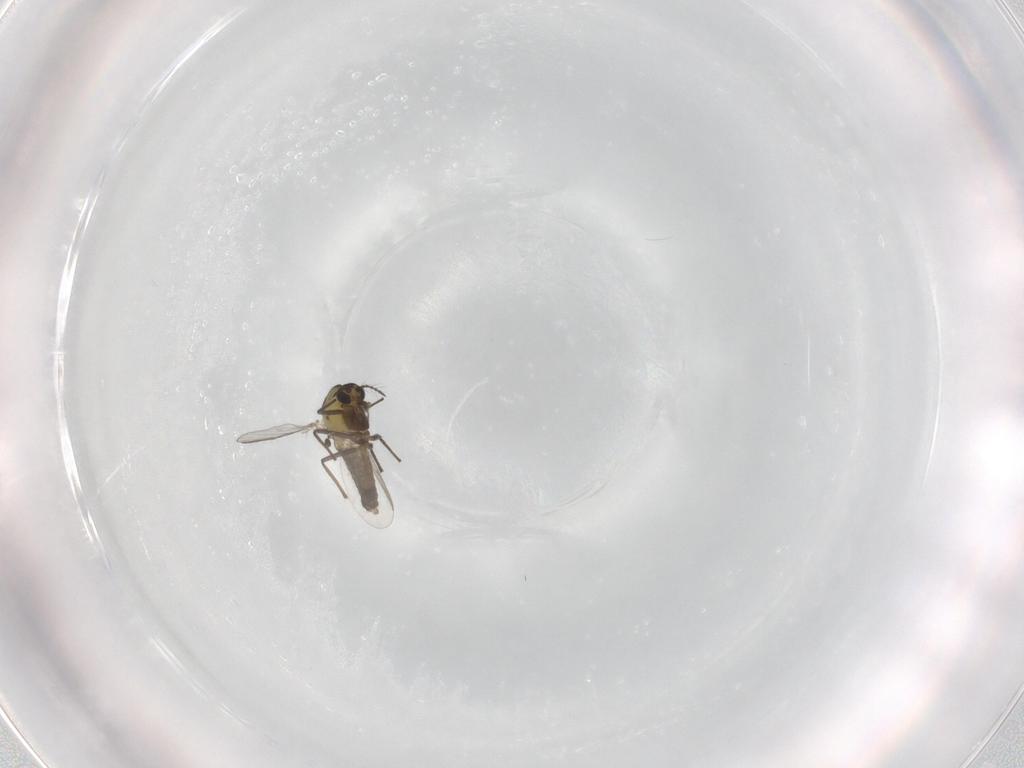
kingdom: Animalia
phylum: Arthropoda
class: Insecta
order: Diptera
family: Chironomidae
